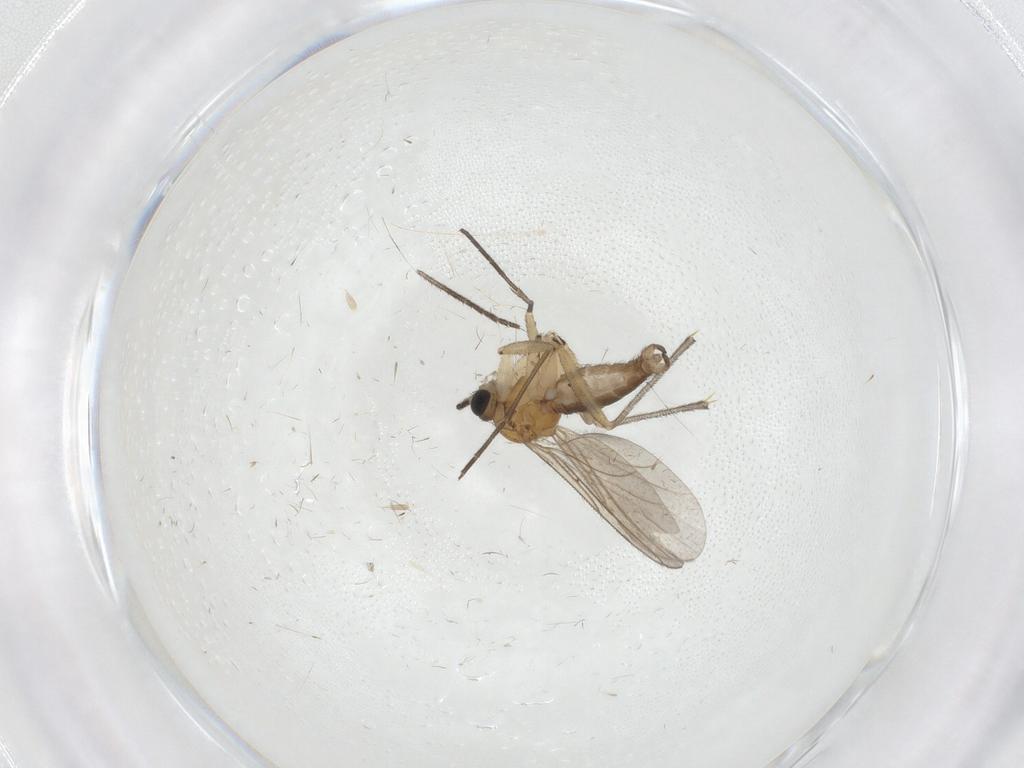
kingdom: Animalia
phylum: Arthropoda
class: Insecta
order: Diptera
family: Sciaridae
